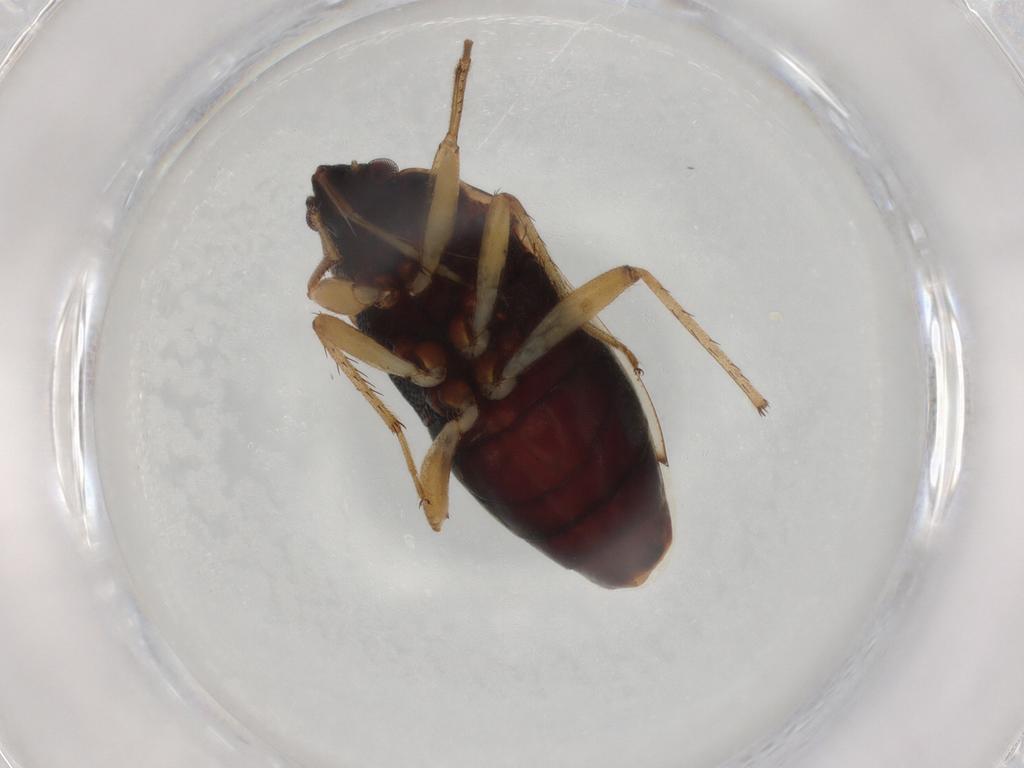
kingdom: Animalia
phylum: Arthropoda
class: Insecta
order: Hemiptera
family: Rhyparochromidae
